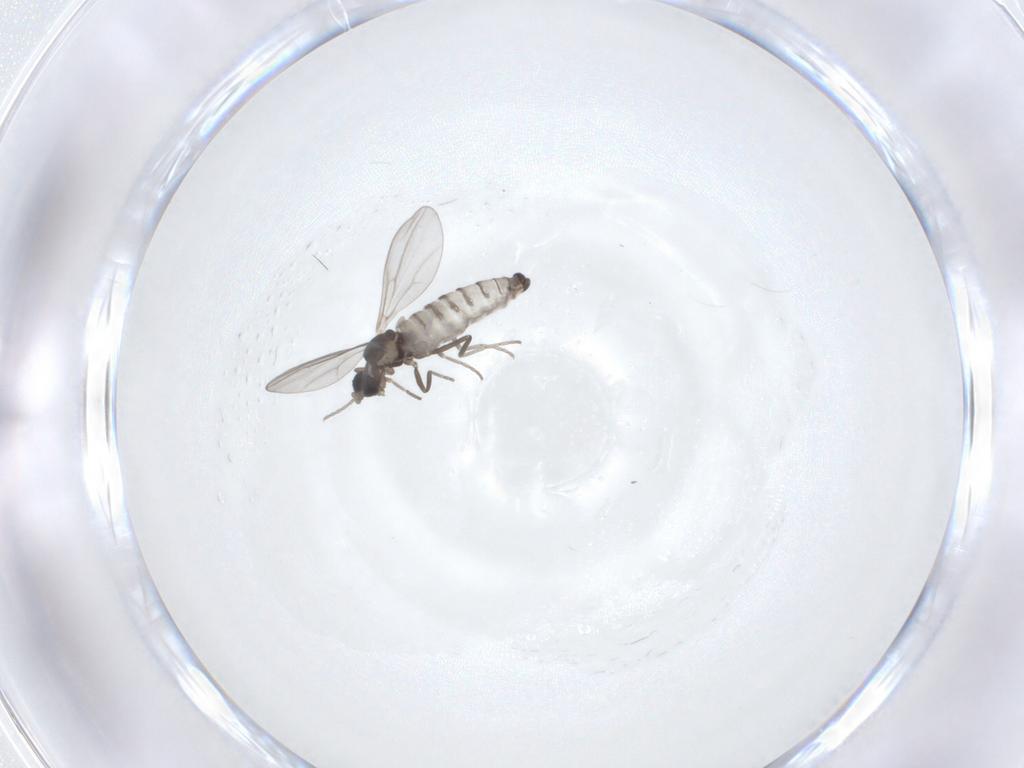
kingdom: Animalia
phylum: Arthropoda
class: Insecta
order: Diptera
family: Cecidomyiidae
